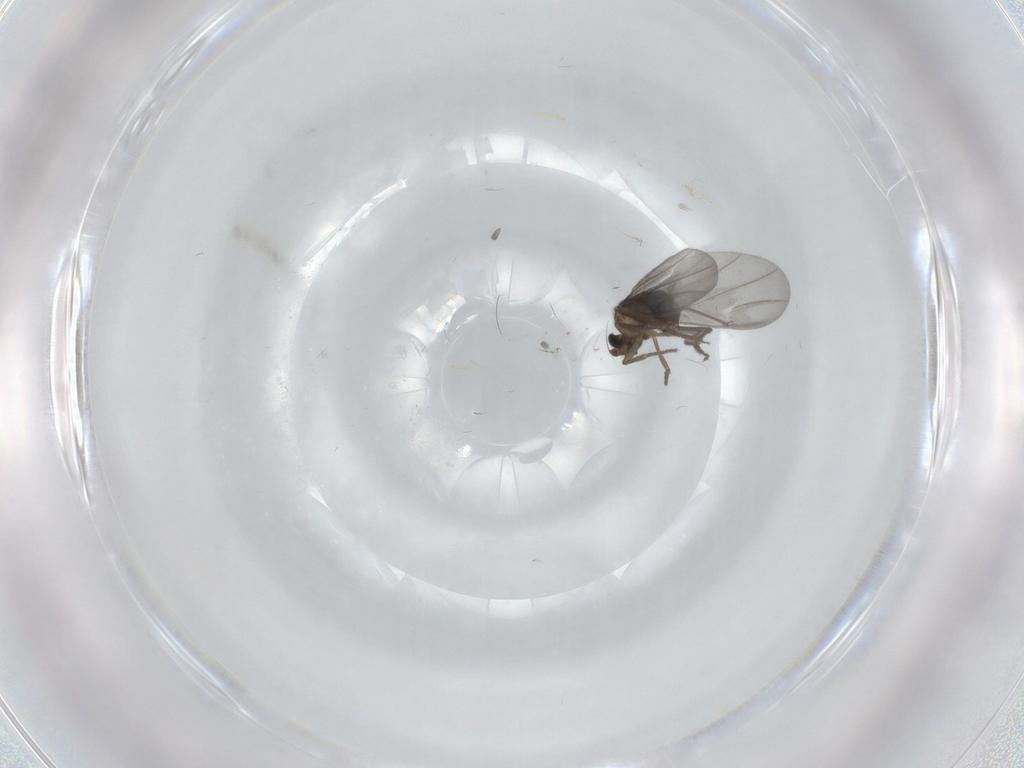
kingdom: Animalia
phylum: Arthropoda
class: Insecta
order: Diptera
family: Phoridae
